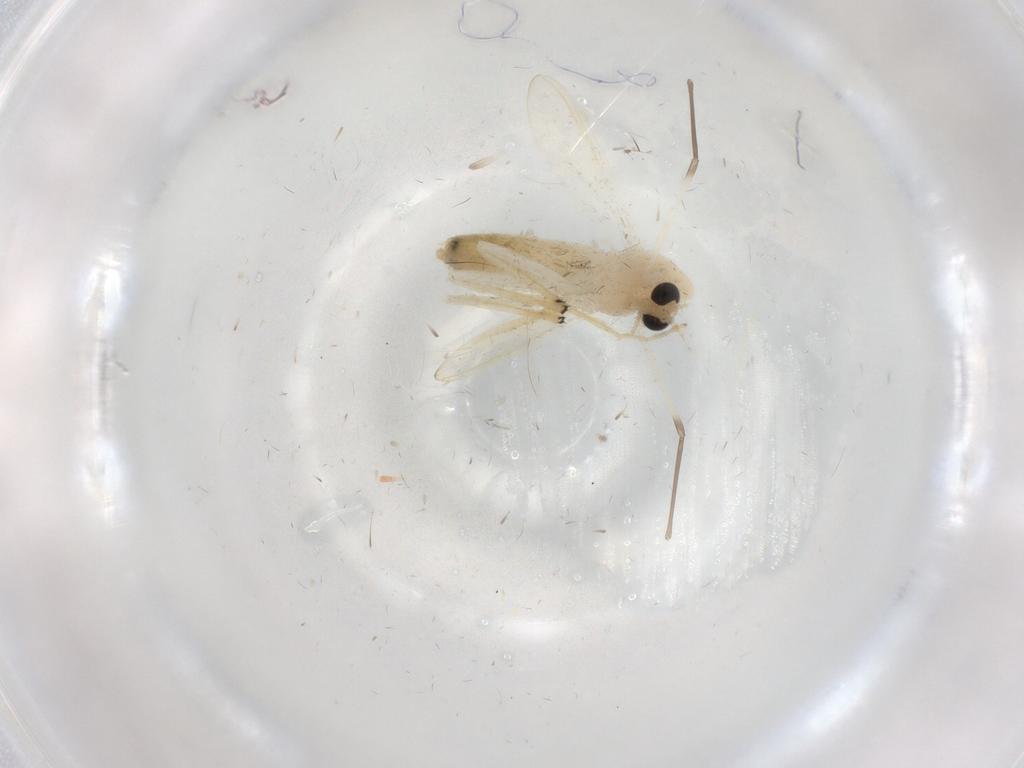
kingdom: Animalia
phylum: Arthropoda
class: Insecta
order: Diptera
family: Chironomidae
